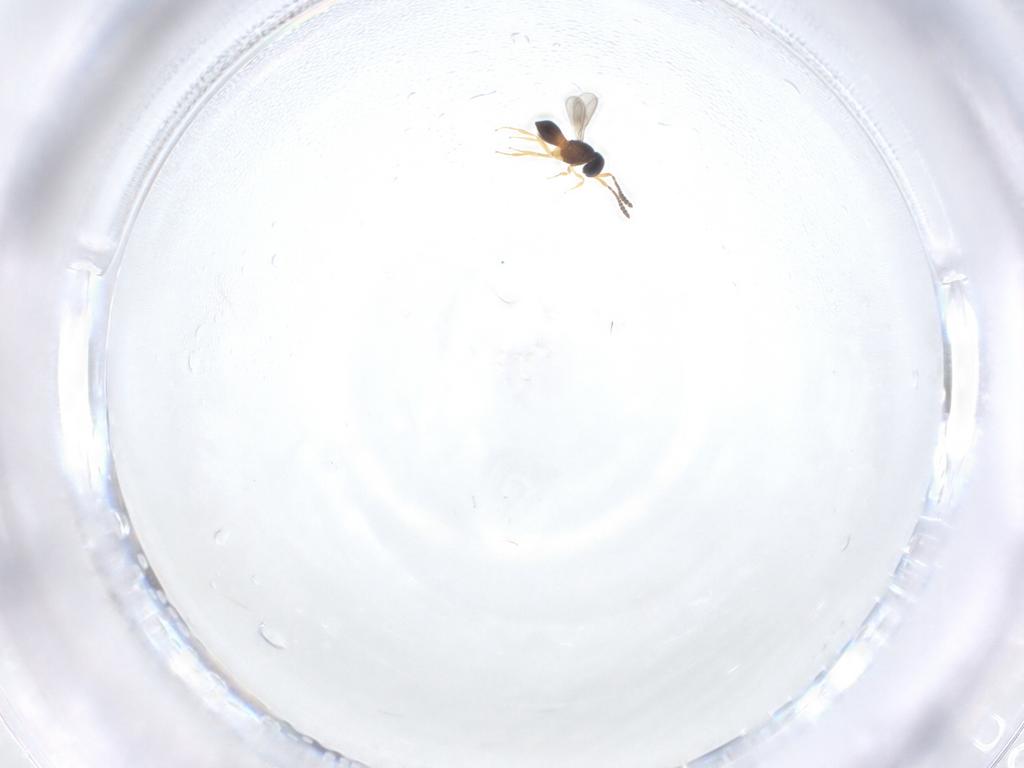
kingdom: Animalia
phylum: Arthropoda
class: Insecta
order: Hymenoptera
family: Scelionidae
